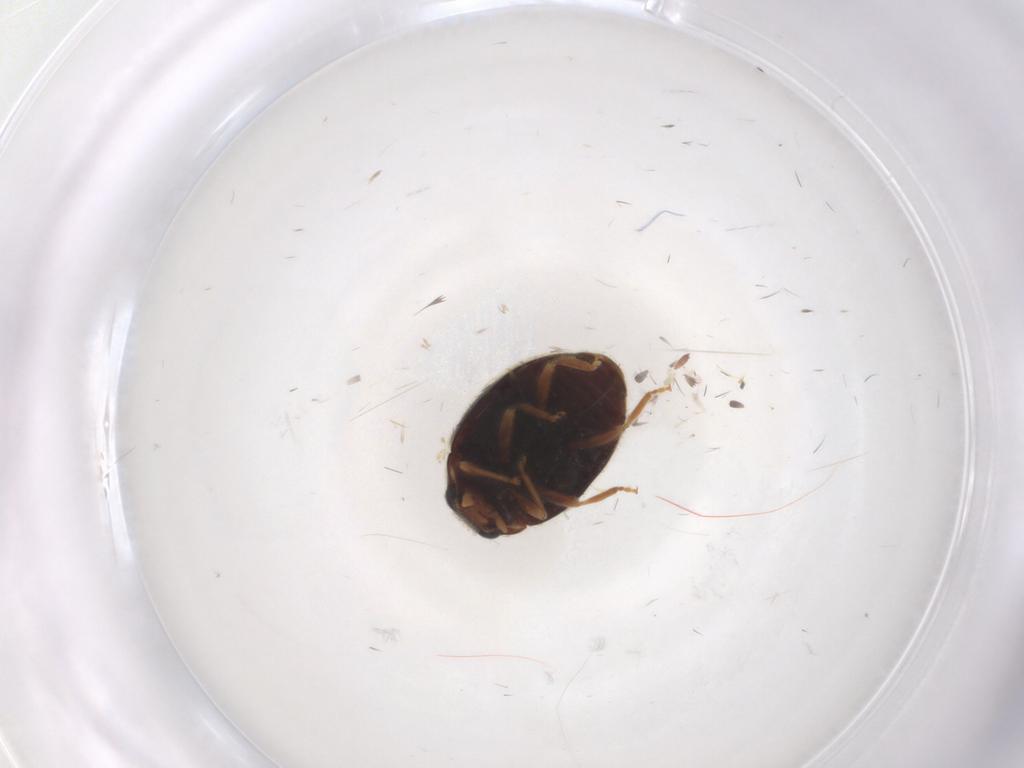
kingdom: Animalia
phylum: Arthropoda
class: Insecta
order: Coleoptera
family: Coccinellidae
